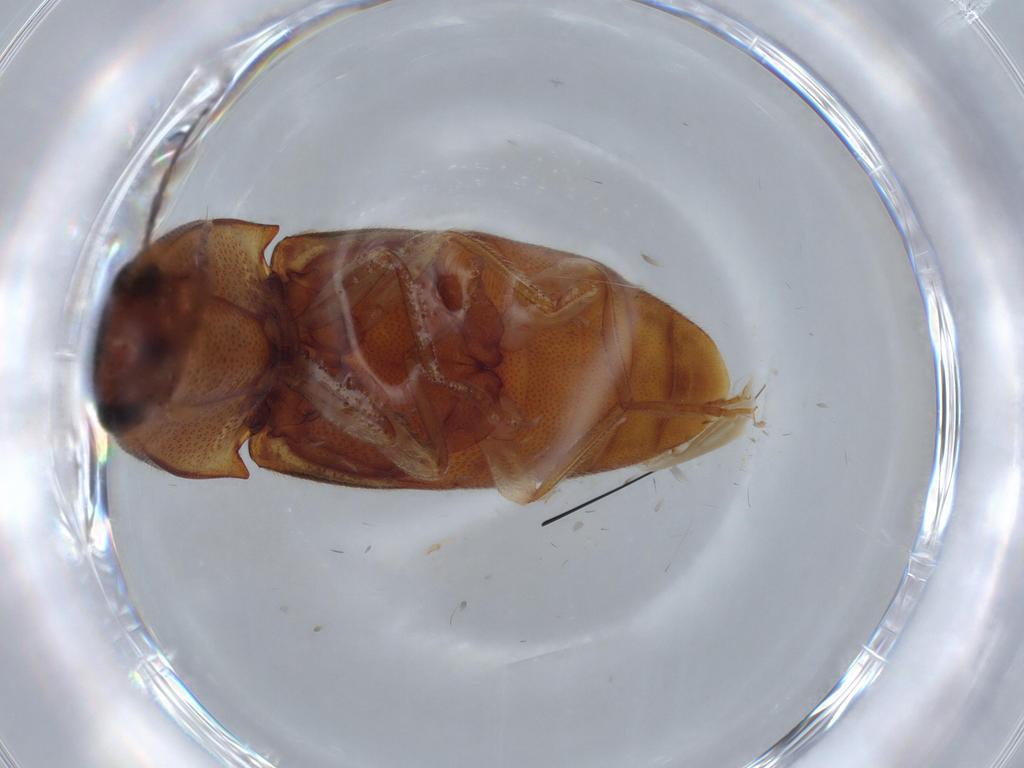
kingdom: Animalia
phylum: Arthropoda
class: Insecta
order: Coleoptera
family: Elateridae
